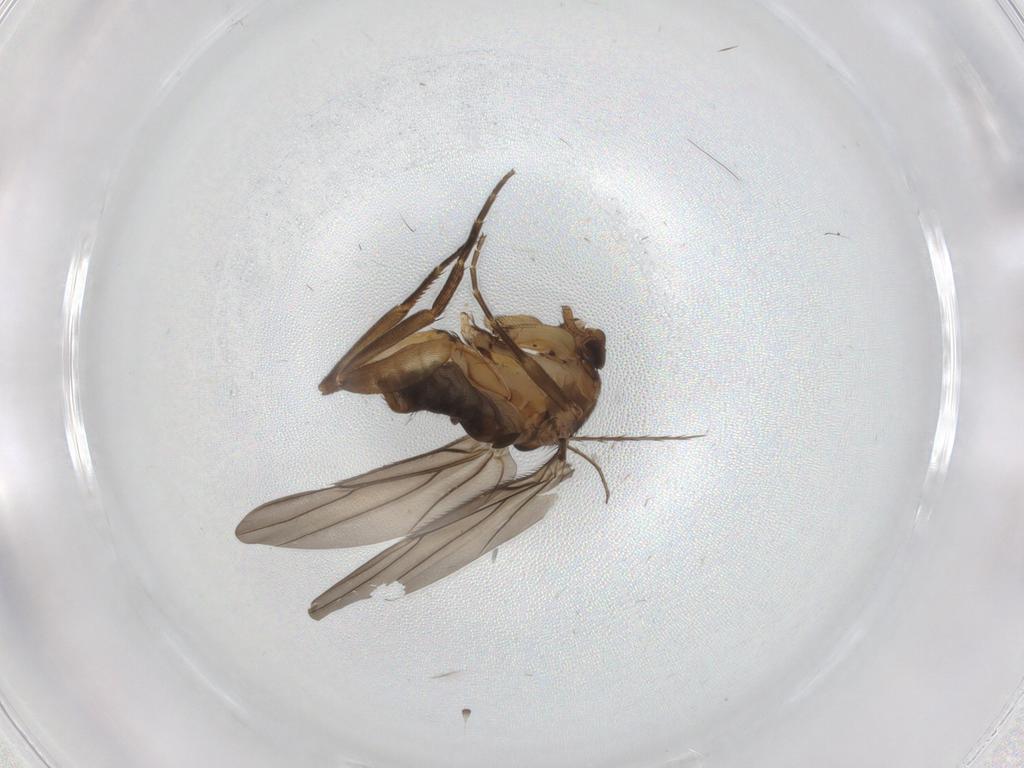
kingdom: Animalia
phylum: Arthropoda
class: Insecta
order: Diptera
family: Phoridae
